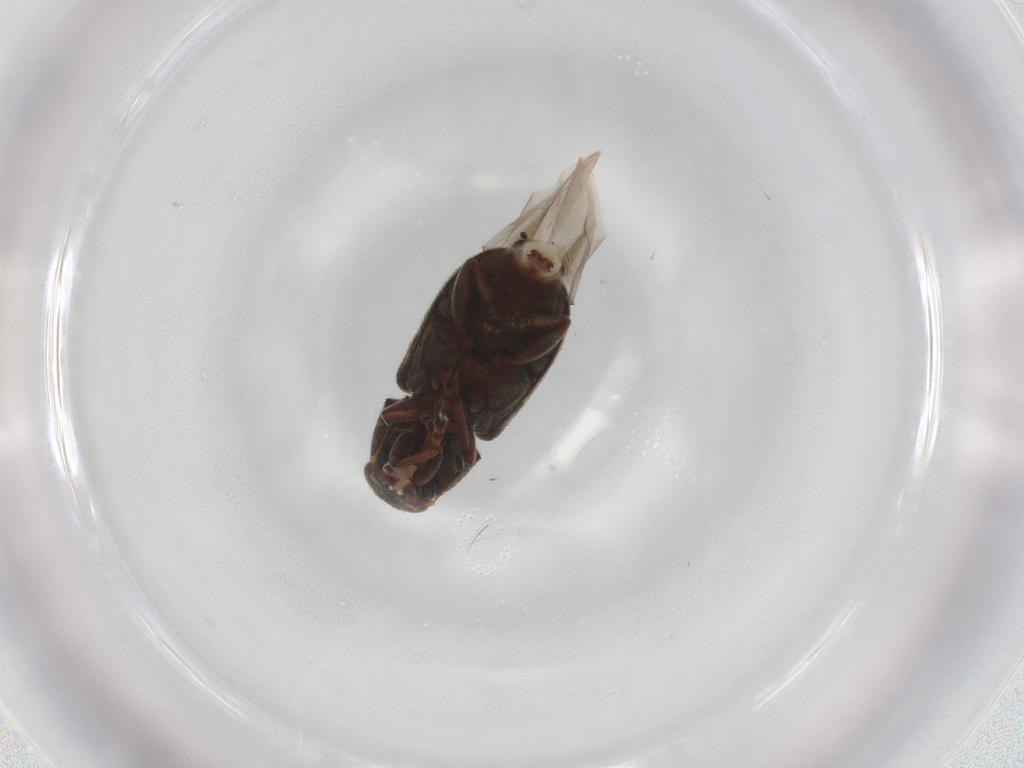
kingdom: Animalia
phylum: Arthropoda
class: Insecta
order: Coleoptera
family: Anthribidae
